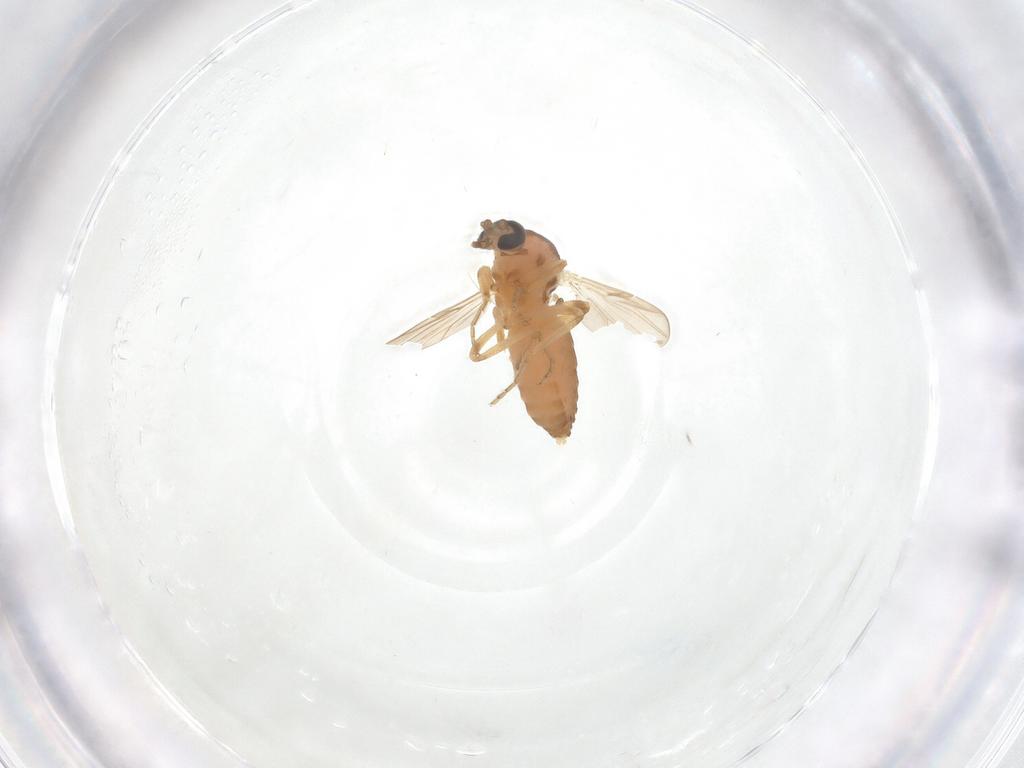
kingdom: Animalia
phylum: Arthropoda
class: Insecta
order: Diptera
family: Ceratopogonidae
